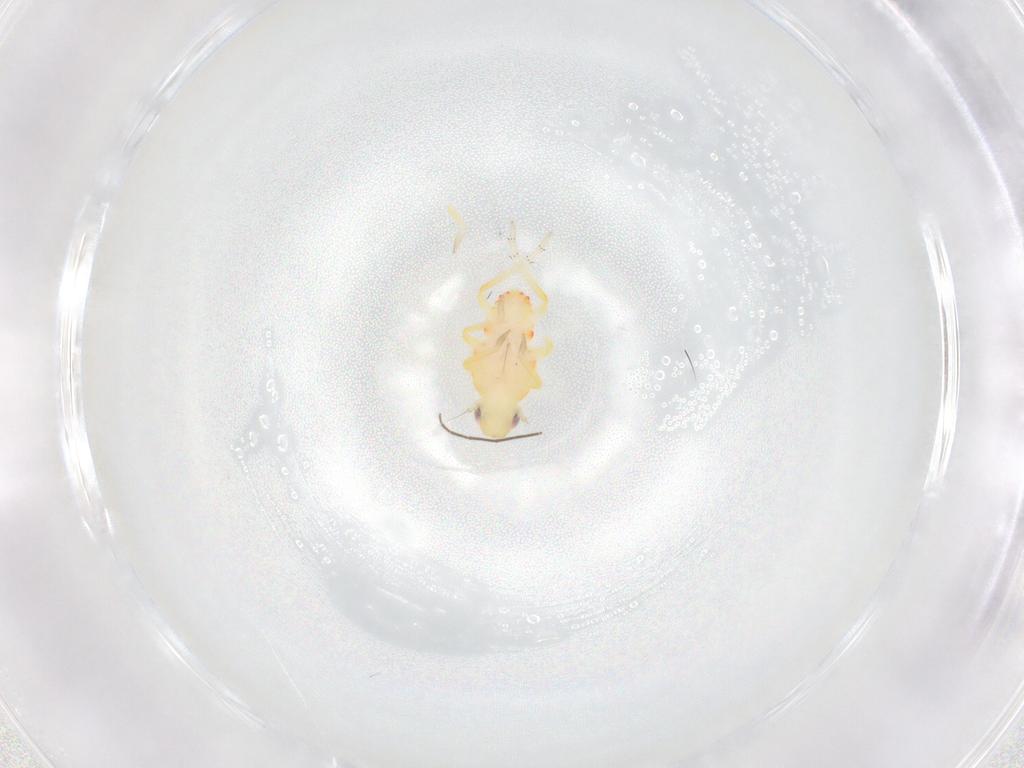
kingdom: Animalia
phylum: Arthropoda
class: Insecta
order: Hemiptera
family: Tropiduchidae
